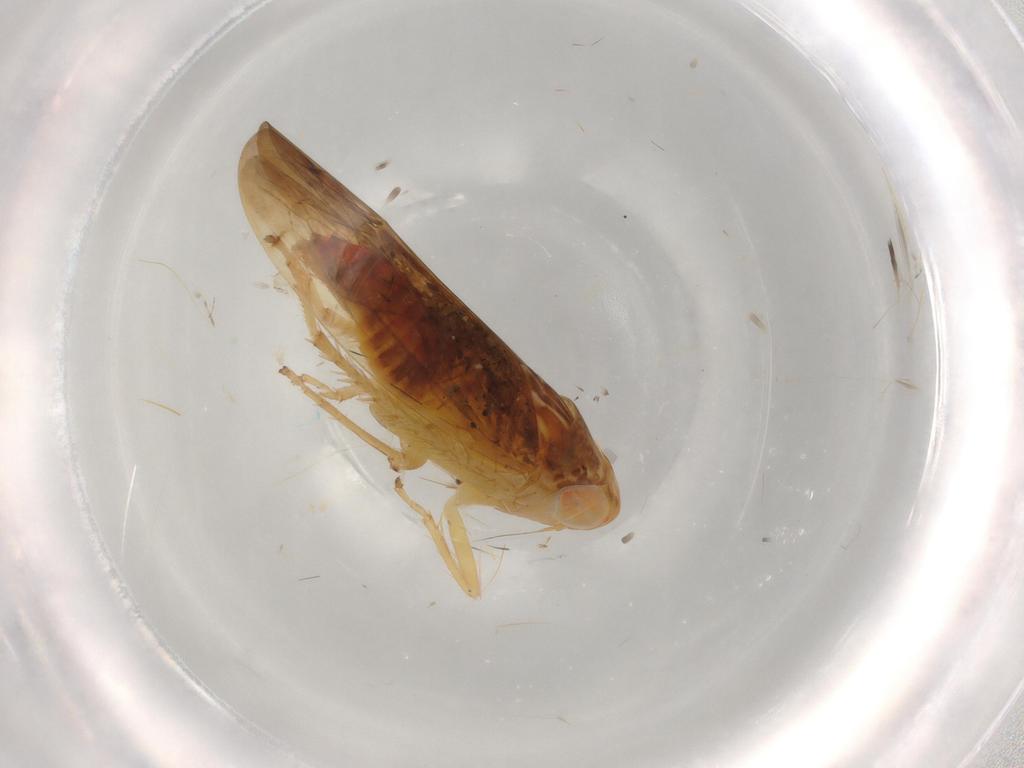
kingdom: Animalia
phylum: Arthropoda
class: Insecta
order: Hemiptera
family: Cicadellidae
